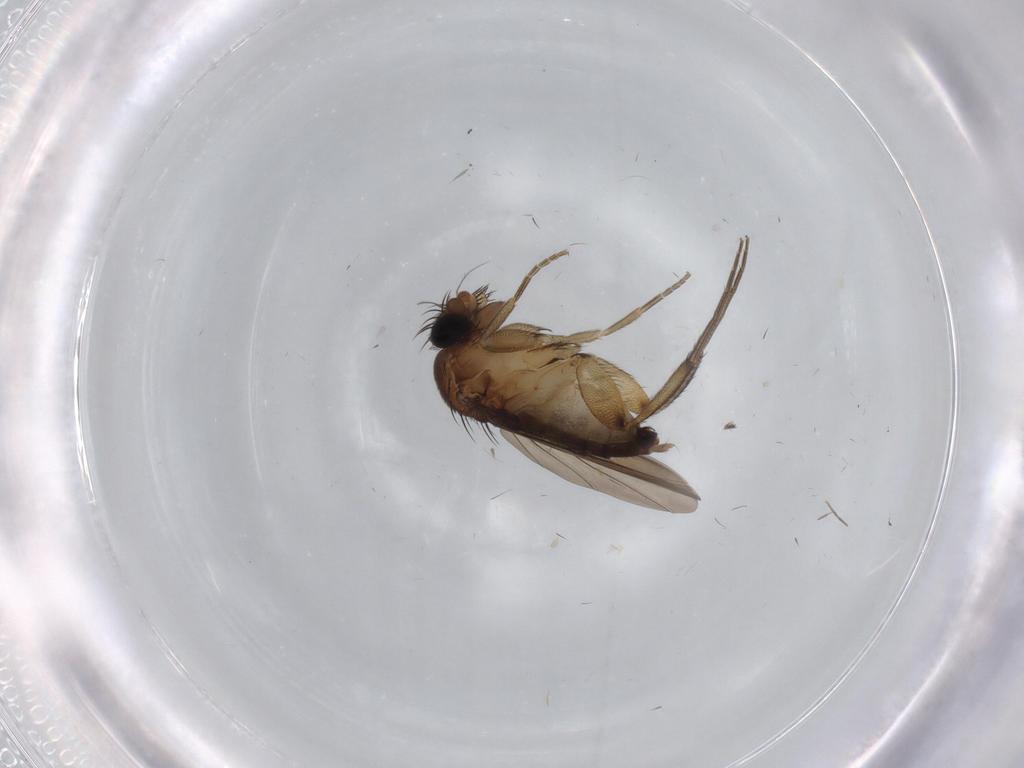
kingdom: Animalia
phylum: Arthropoda
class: Insecta
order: Diptera
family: Phoridae
